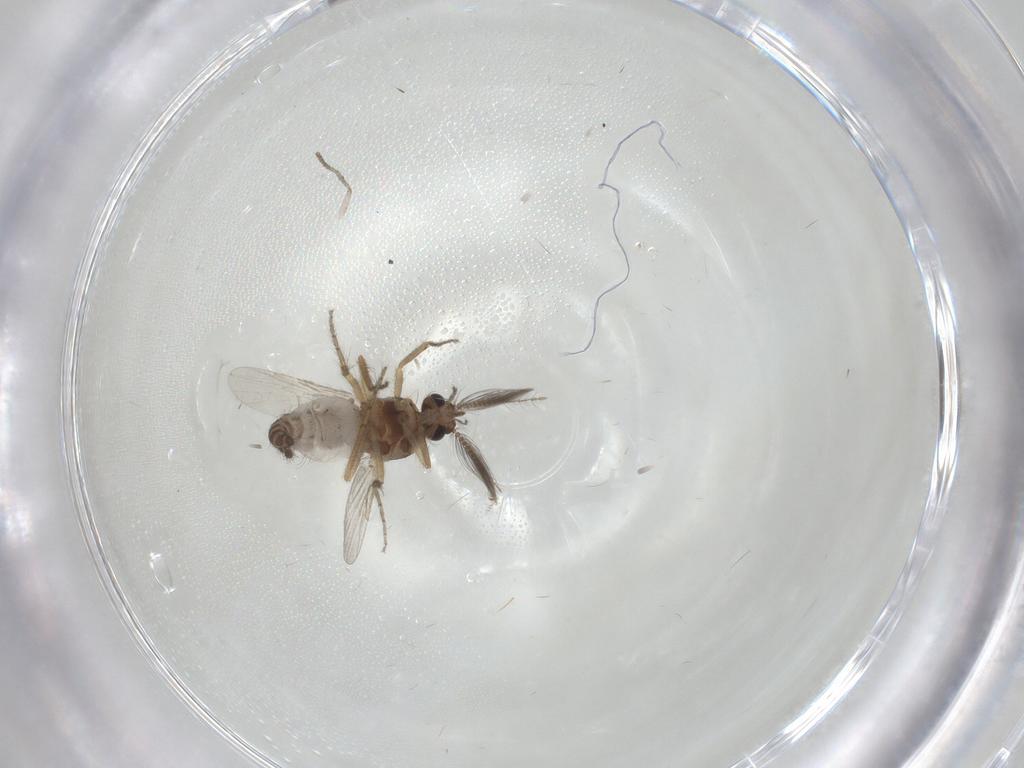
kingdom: Animalia
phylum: Arthropoda
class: Insecta
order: Diptera
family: Ceratopogonidae
